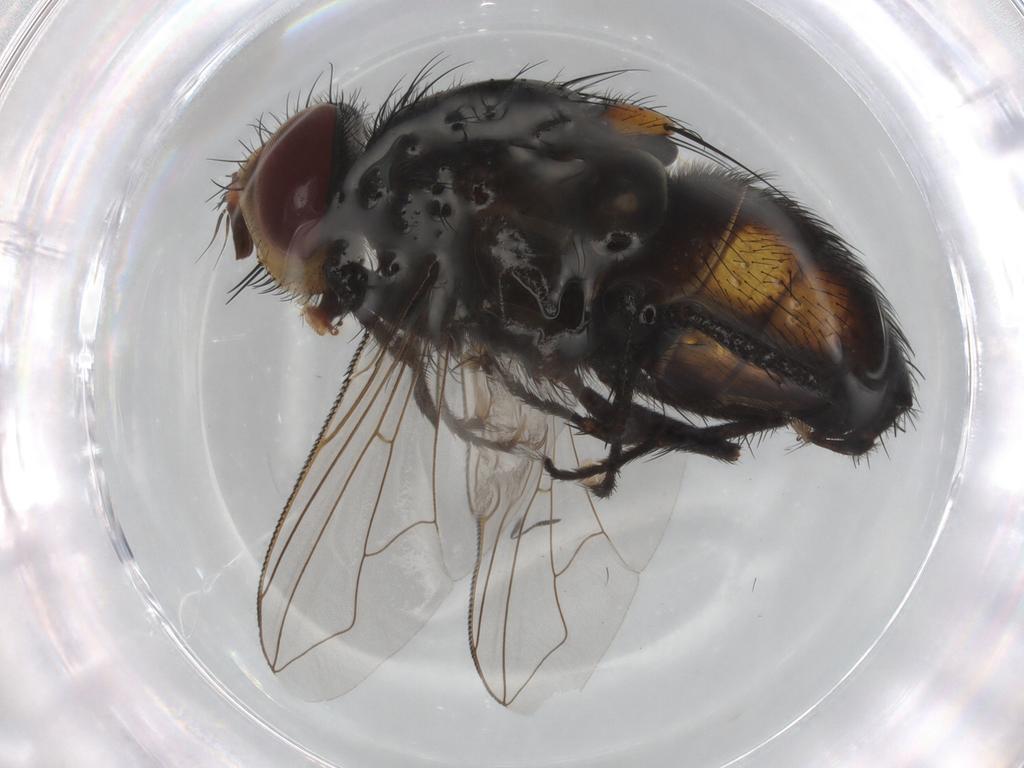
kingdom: Animalia
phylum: Arthropoda
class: Insecta
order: Diptera
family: Tachinidae
